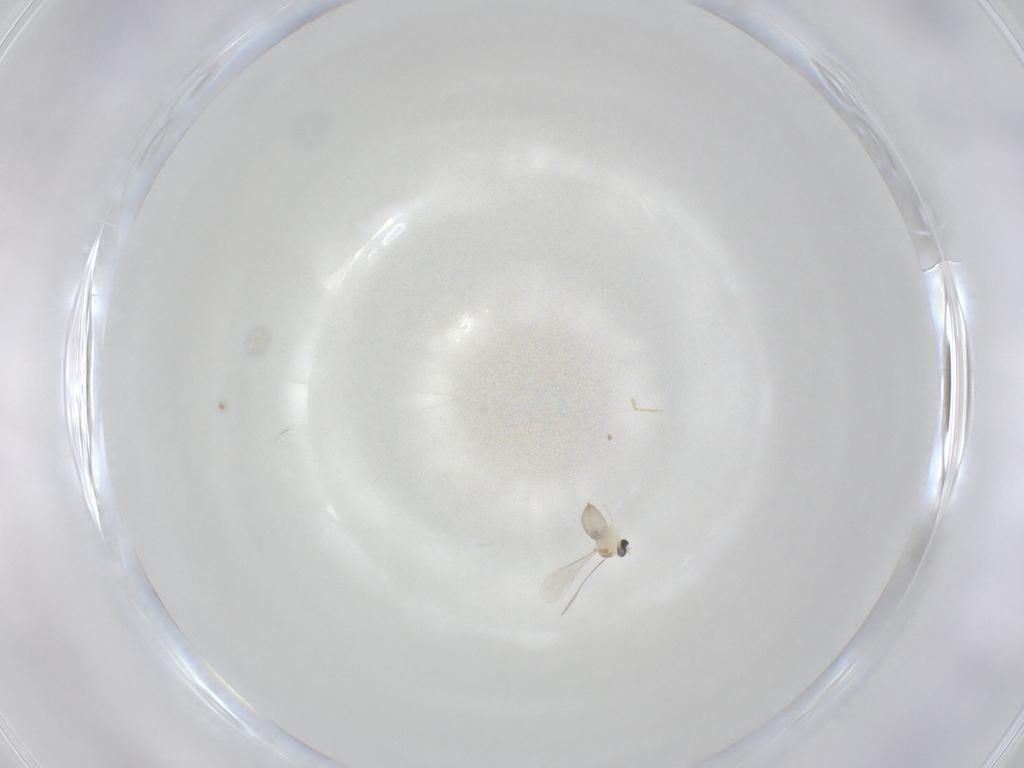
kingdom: Animalia
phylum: Arthropoda
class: Insecta
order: Diptera
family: Cecidomyiidae
